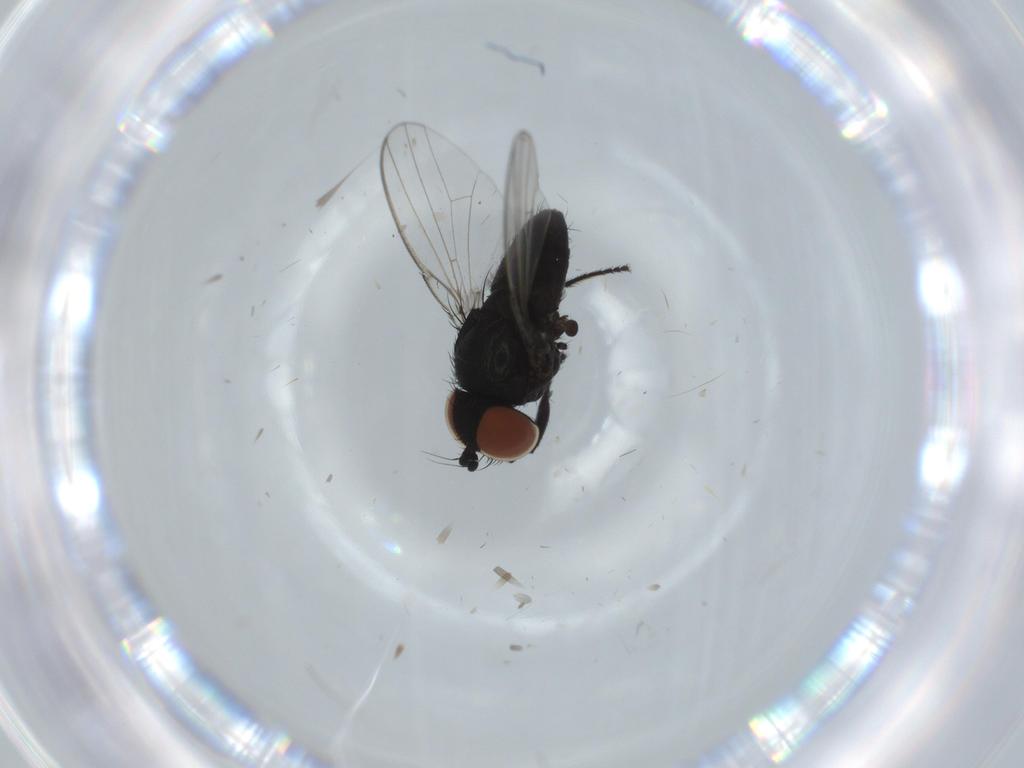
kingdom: Animalia
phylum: Arthropoda
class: Insecta
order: Diptera
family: Milichiidae
